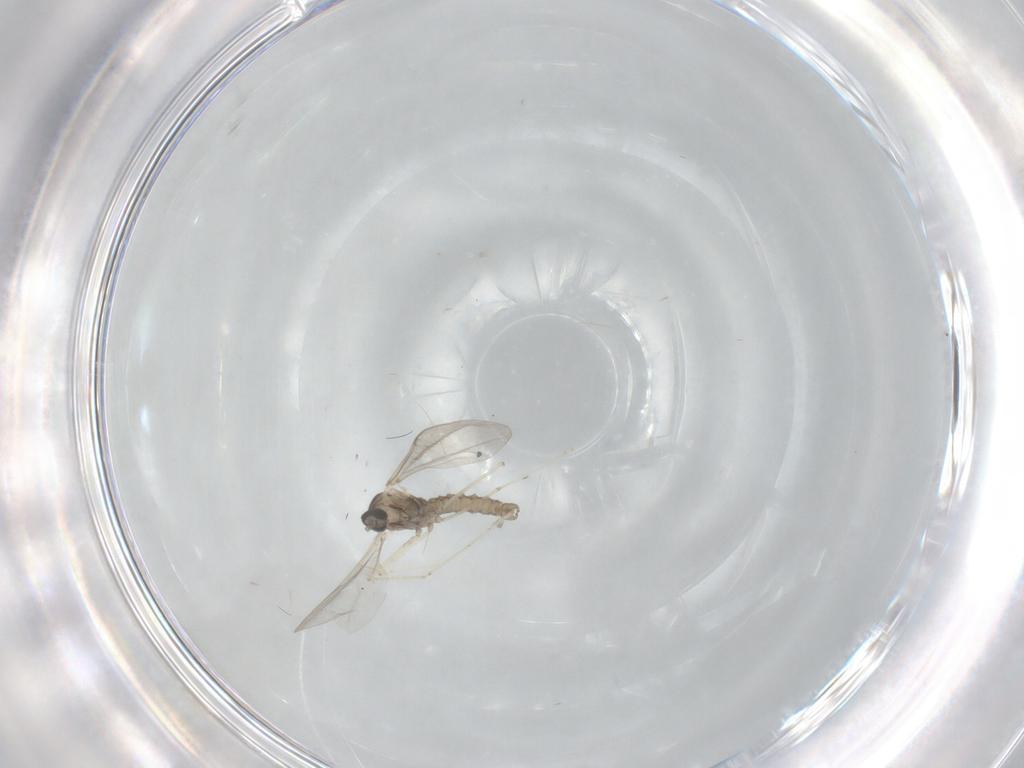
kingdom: Animalia
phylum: Arthropoda
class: Insecta
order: Diptera
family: Cecidomyiidae
